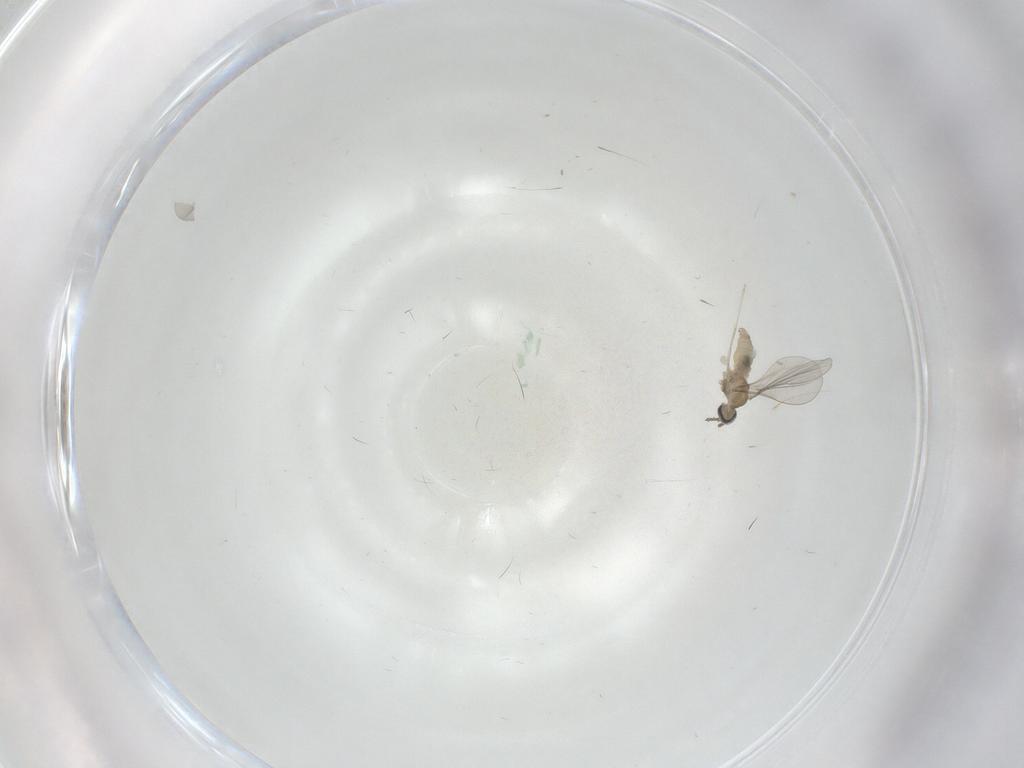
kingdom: Animalia
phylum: Arthropoda
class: Insecta
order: Diptera
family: Cecidomyiidae
